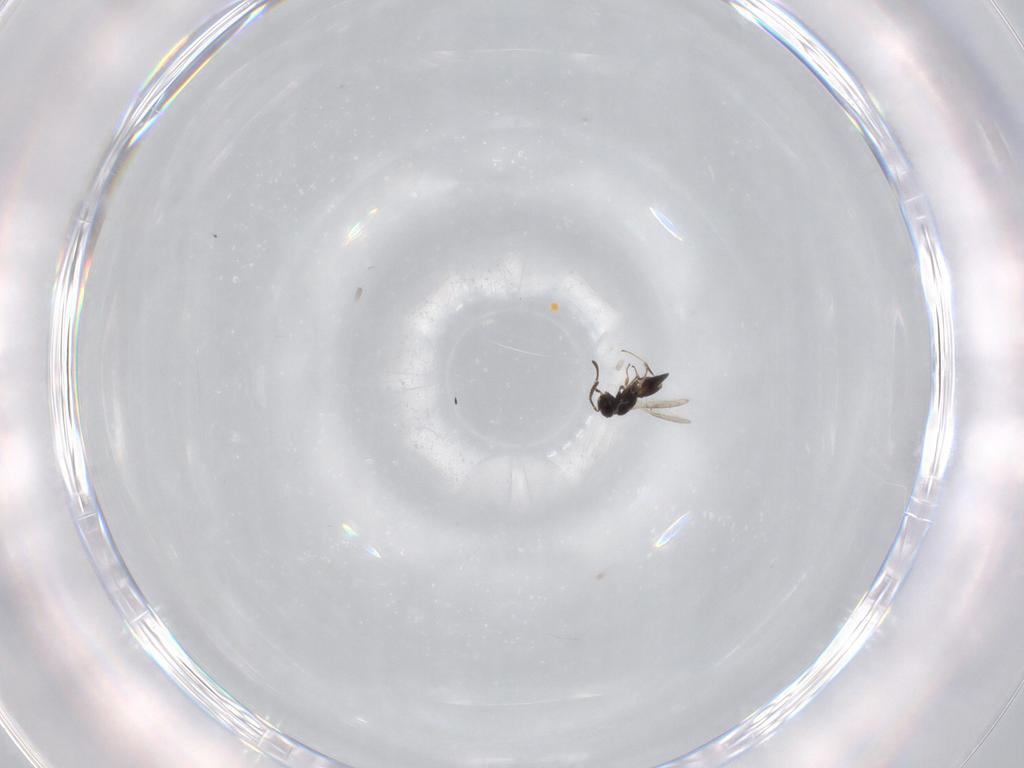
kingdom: Animalia
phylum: Arthropoda
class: Insecta
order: Hymenoptera
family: Scelionidae
